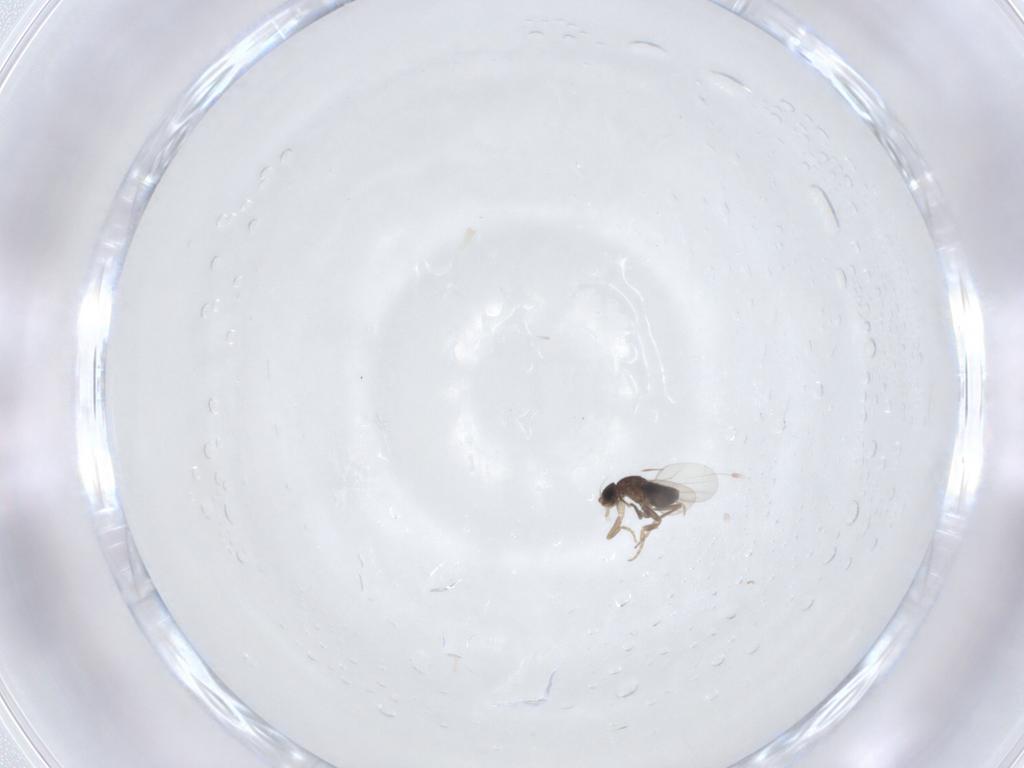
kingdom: Animalia
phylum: Arthropoda
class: Insecta
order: Diptera
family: Phoridae
